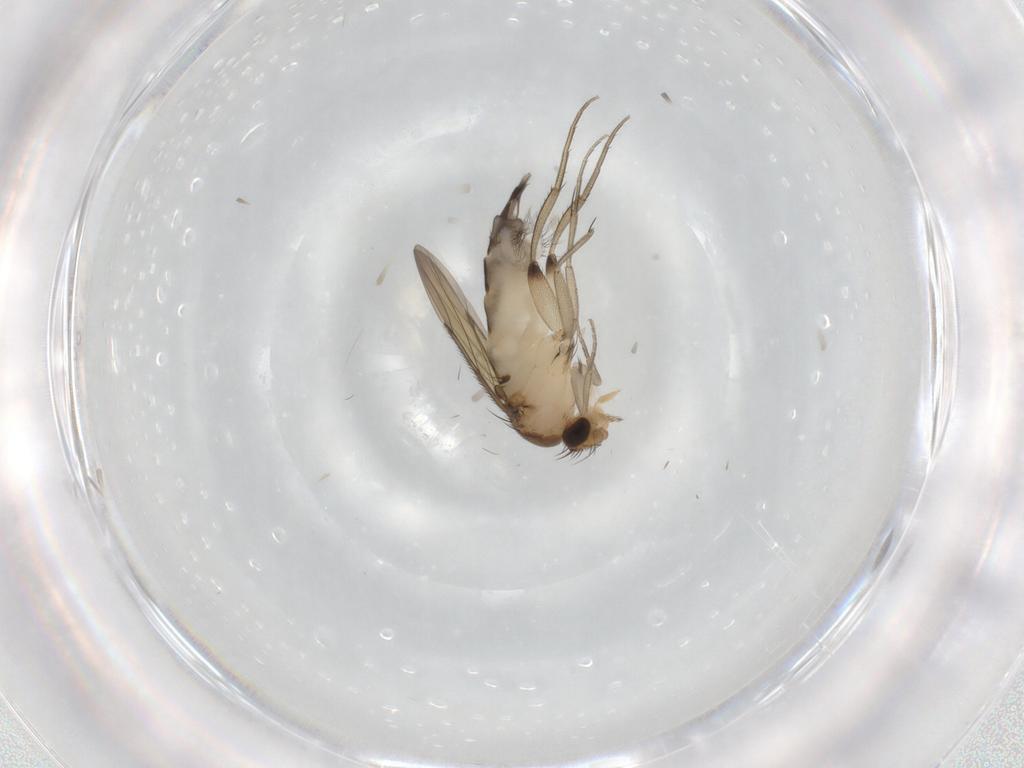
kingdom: Animalia
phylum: Arthropoda
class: Insecta
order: Diptera
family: Phoridae
